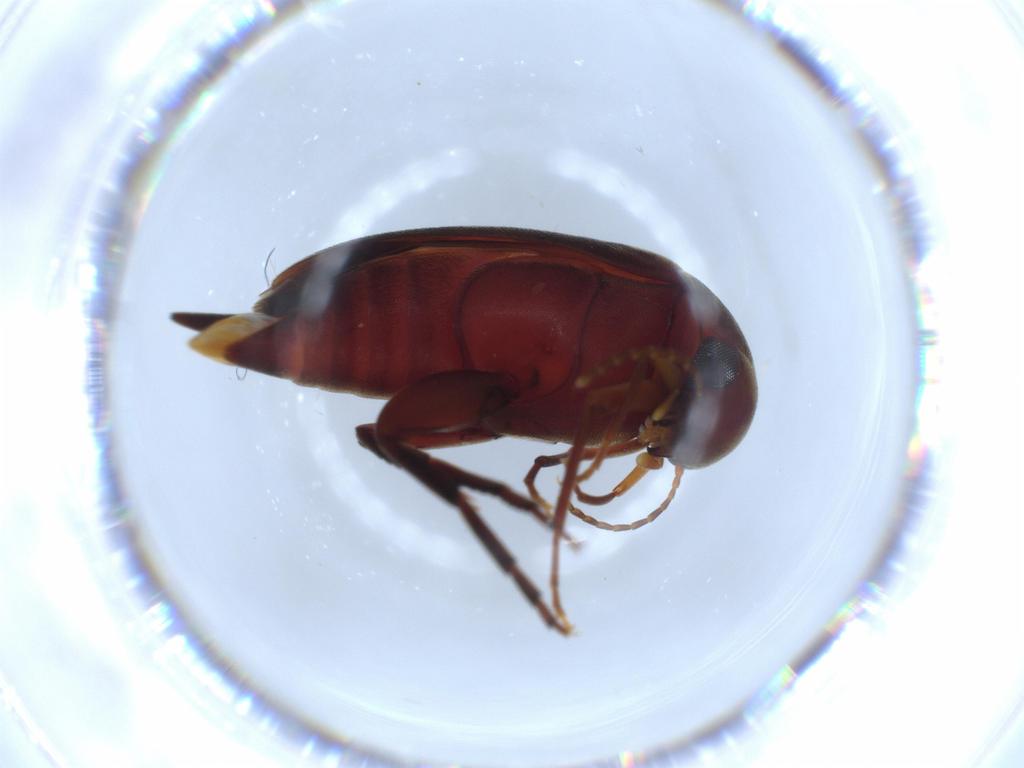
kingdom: Animalia
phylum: Arthropoda
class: Insecta
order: Coleoptera
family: Mordellidae
